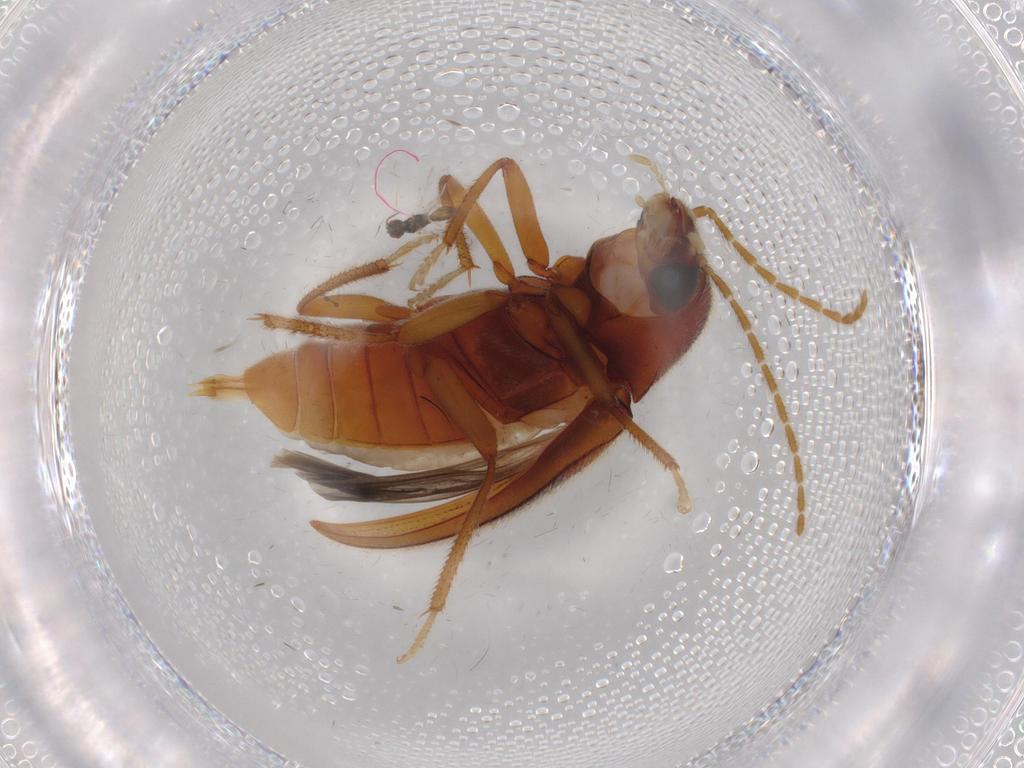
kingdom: Animalia
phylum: Arthropoda
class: Insecta
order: Coleoptera
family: Ptilodactylidae
